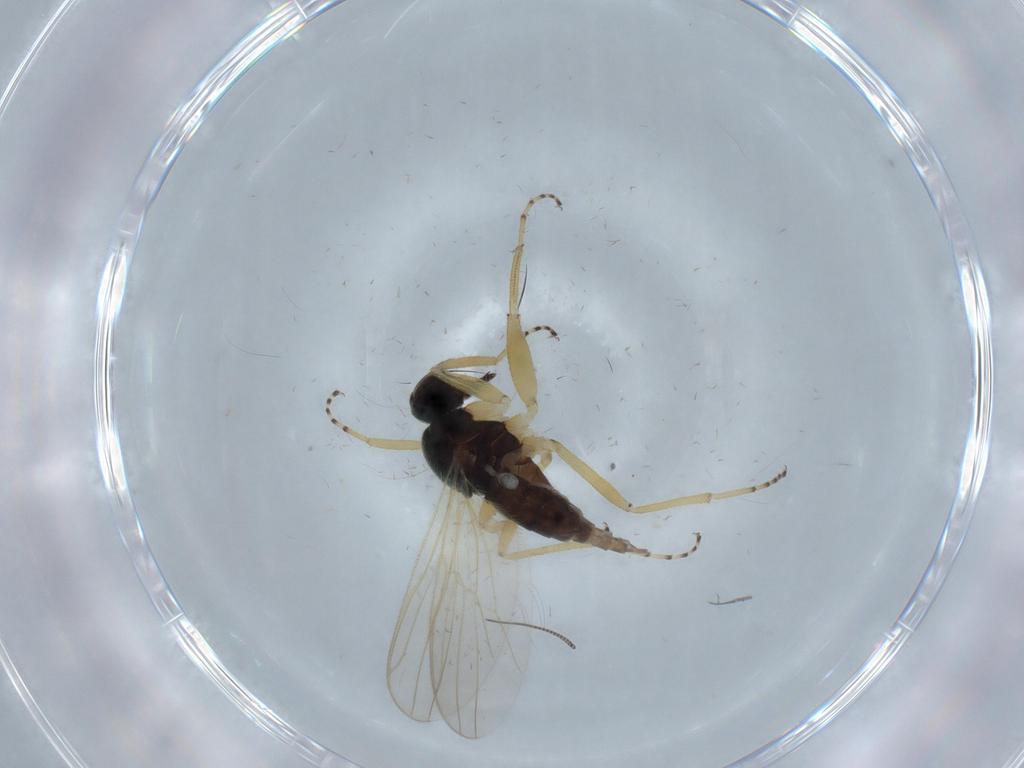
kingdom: Animalia
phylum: Arthropoda
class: Insecta
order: Diptera
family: Hybotidae
